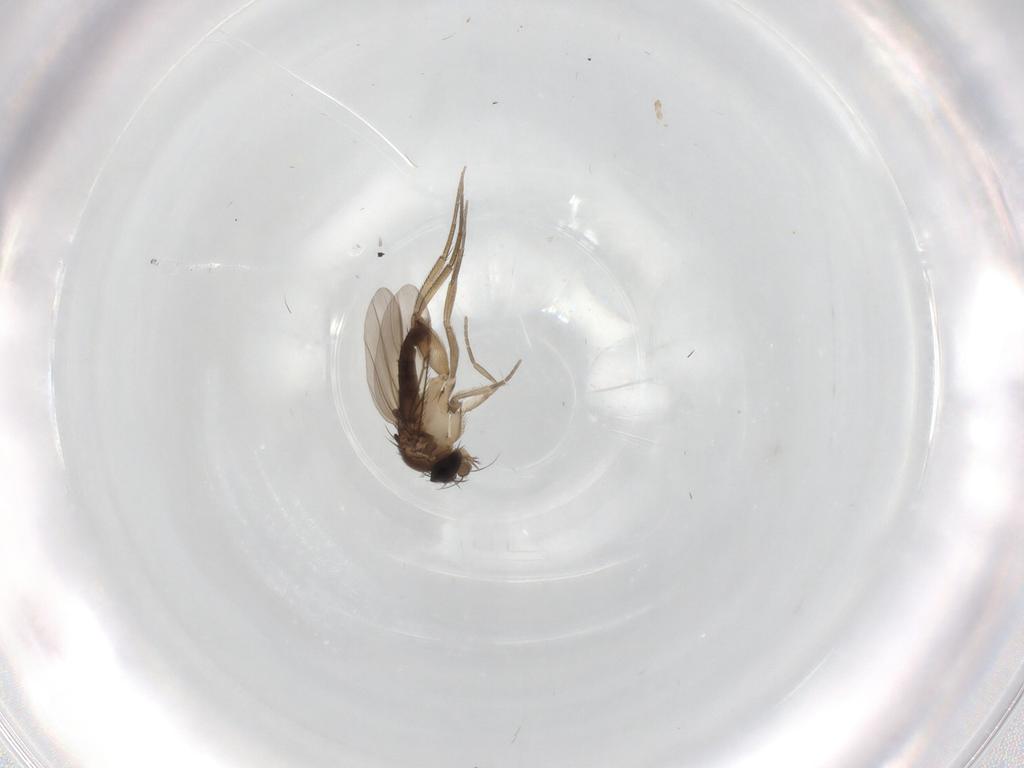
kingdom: Animalia
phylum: Arthropoda
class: Insecta
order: Diptera
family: Phoridae
